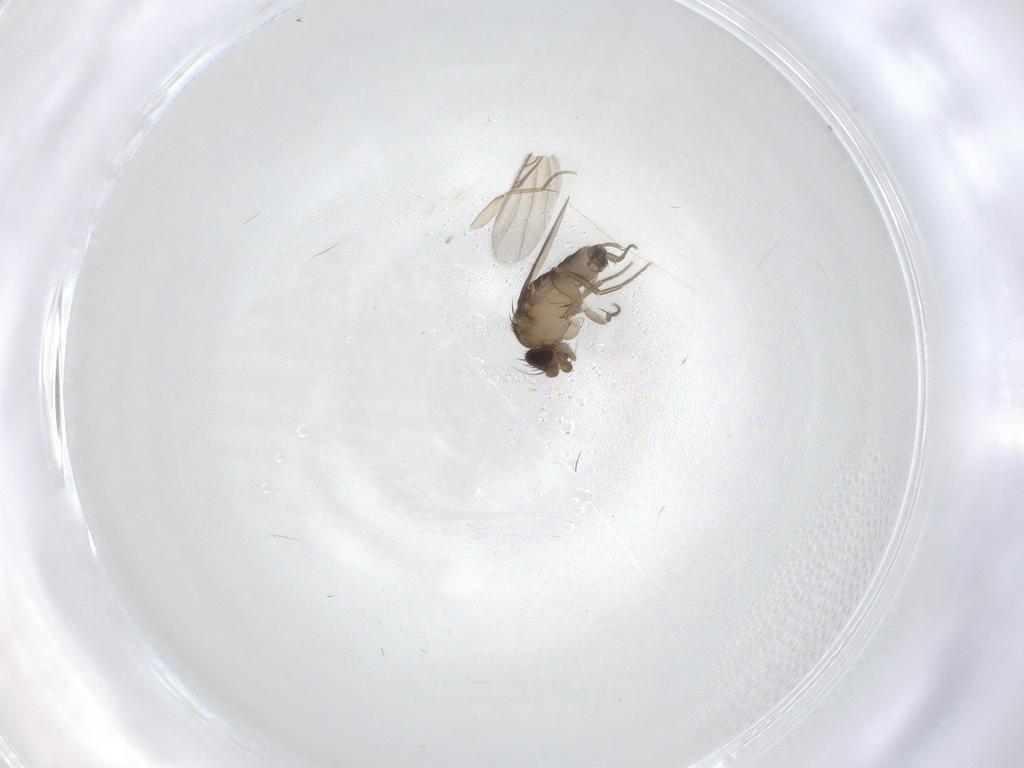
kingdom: Animalia
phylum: Arthropoda
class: Insecta
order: Diptera
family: Phoridae
